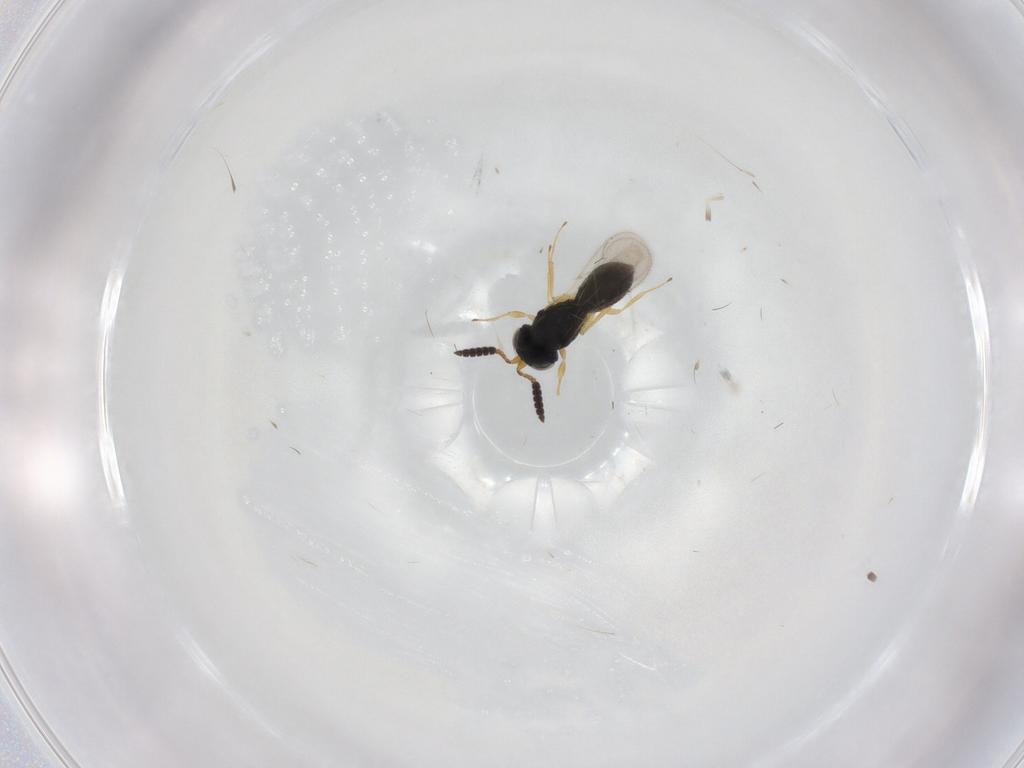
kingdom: Animalia
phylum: Arthropoda
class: Insecta
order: Hymenoptera
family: Scelionidae
